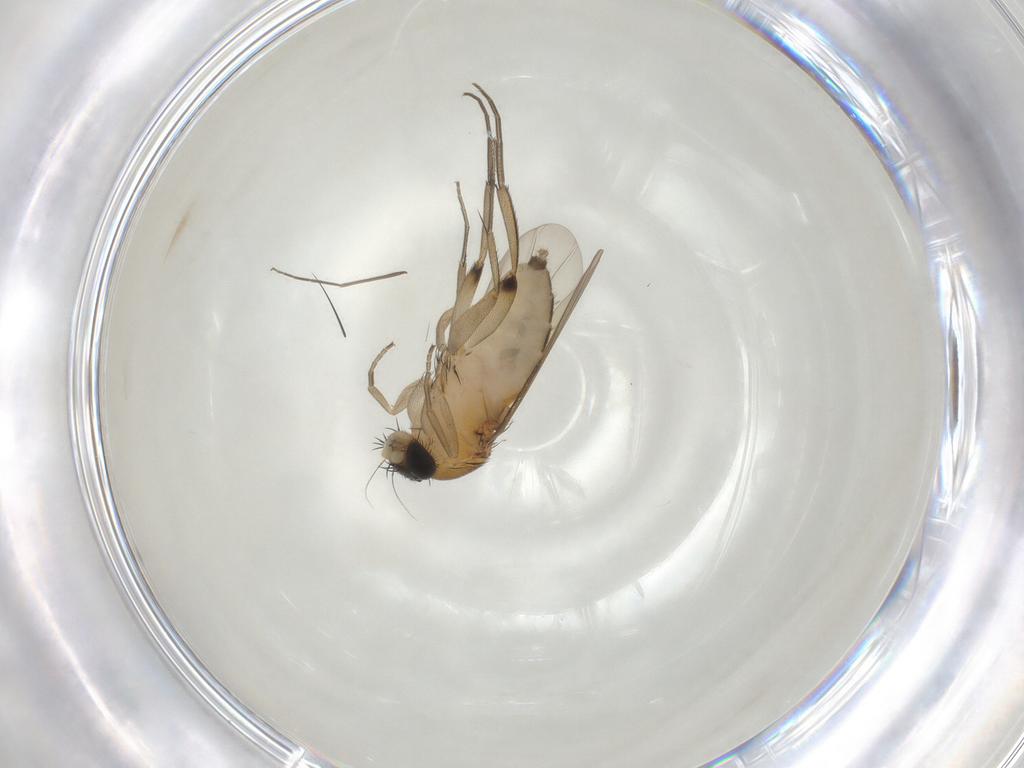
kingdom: Animalia
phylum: Arthropoda
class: Insecta
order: Diptera
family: Phoridae
